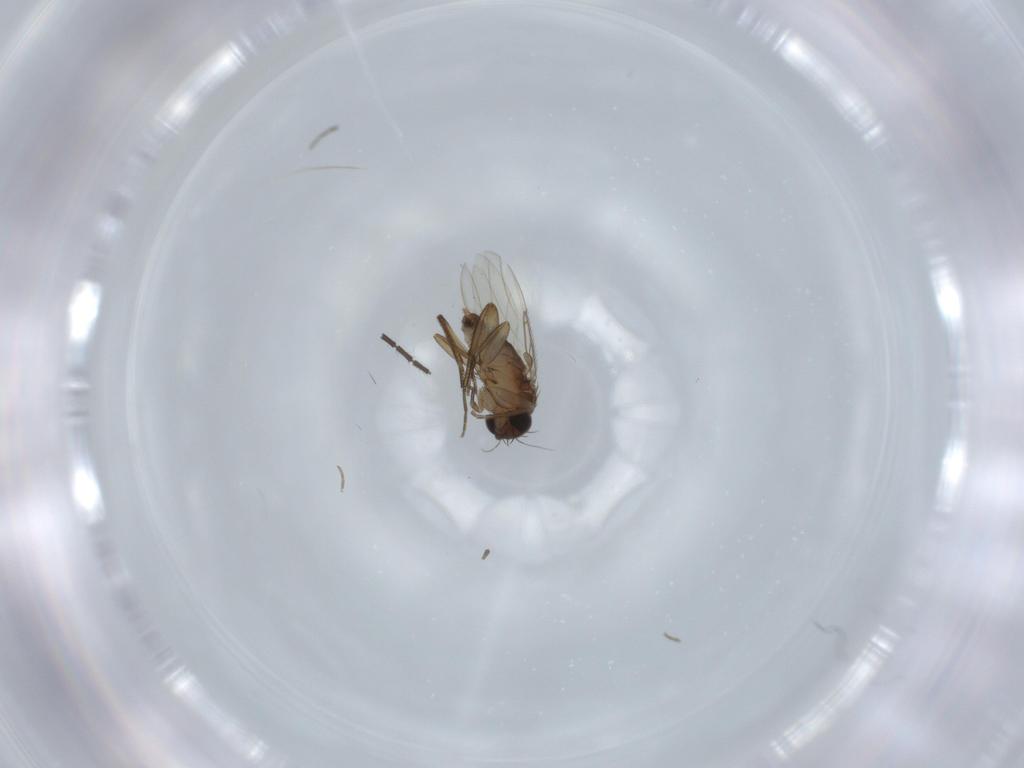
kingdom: Animalia
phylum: Arthropoda
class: Insecta
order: Diptera
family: Phoridae
